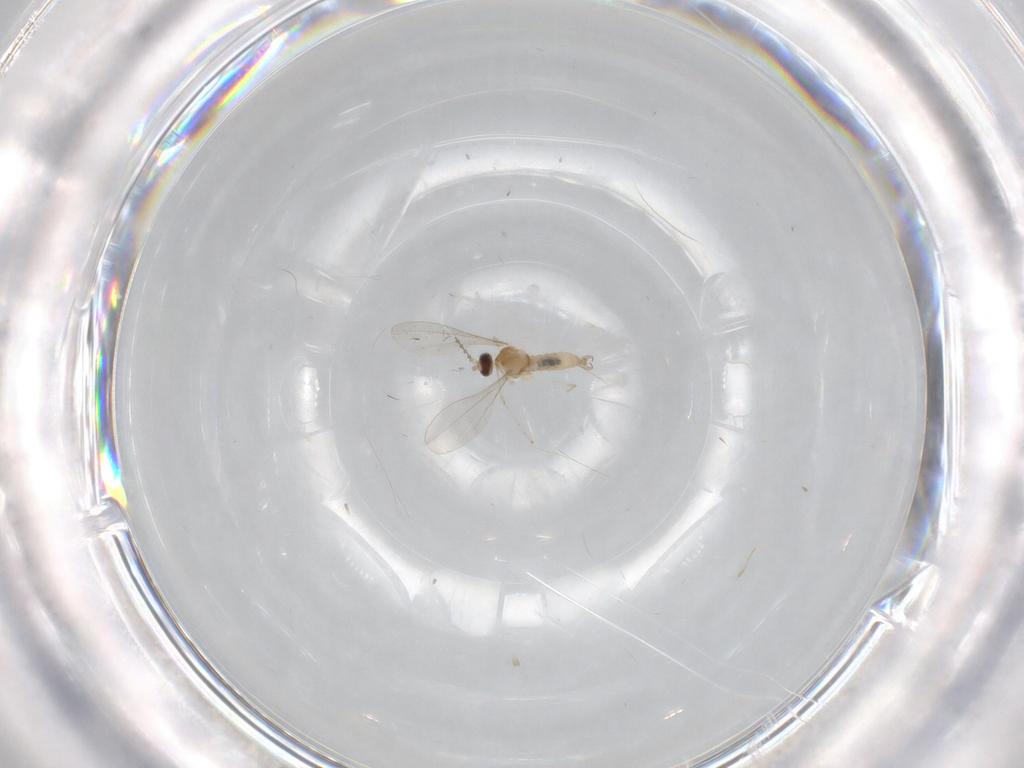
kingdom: Animalia
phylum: Arthropoda
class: Insecta
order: Diptera
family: Cecidomyiidae
